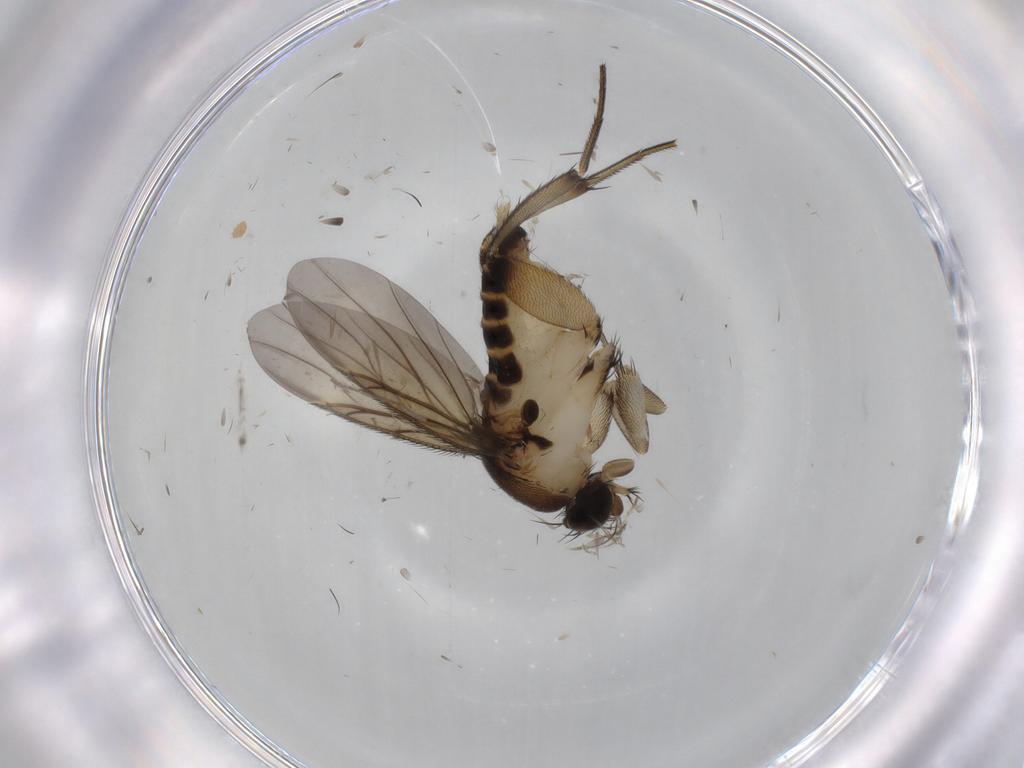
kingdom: Animalia
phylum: Arthropoda
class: Insecta
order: Diptera
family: Phoridae
